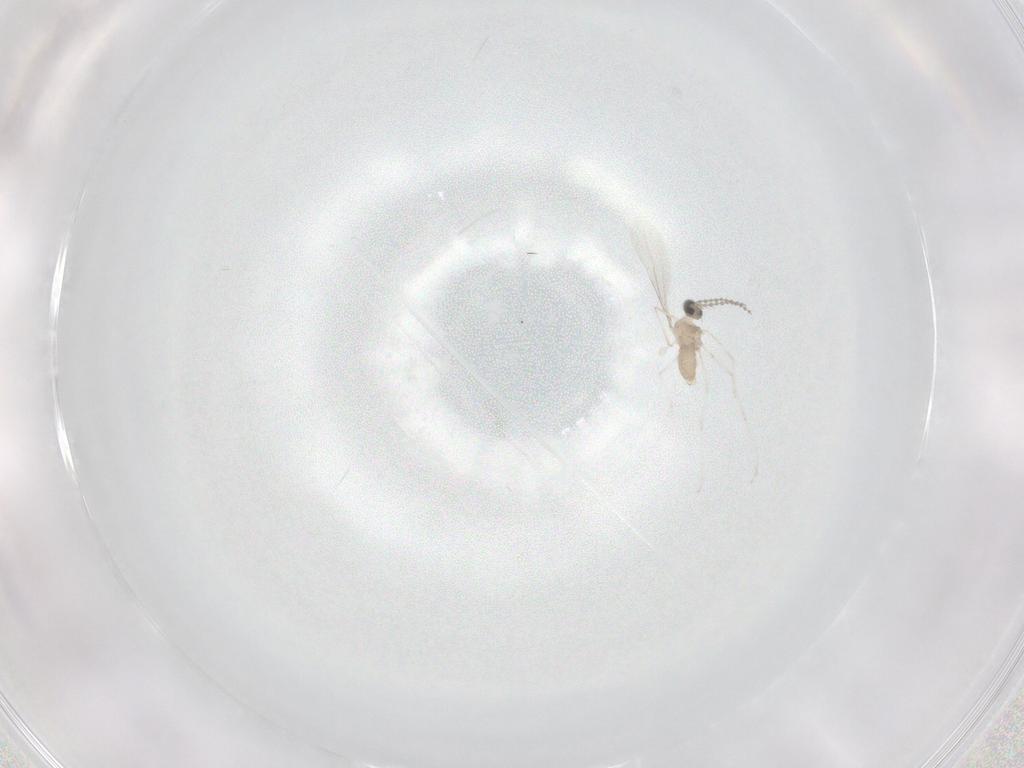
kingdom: Animalia
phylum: Arthropoda
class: Insecta
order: Diptera
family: Cecidomyiidae
